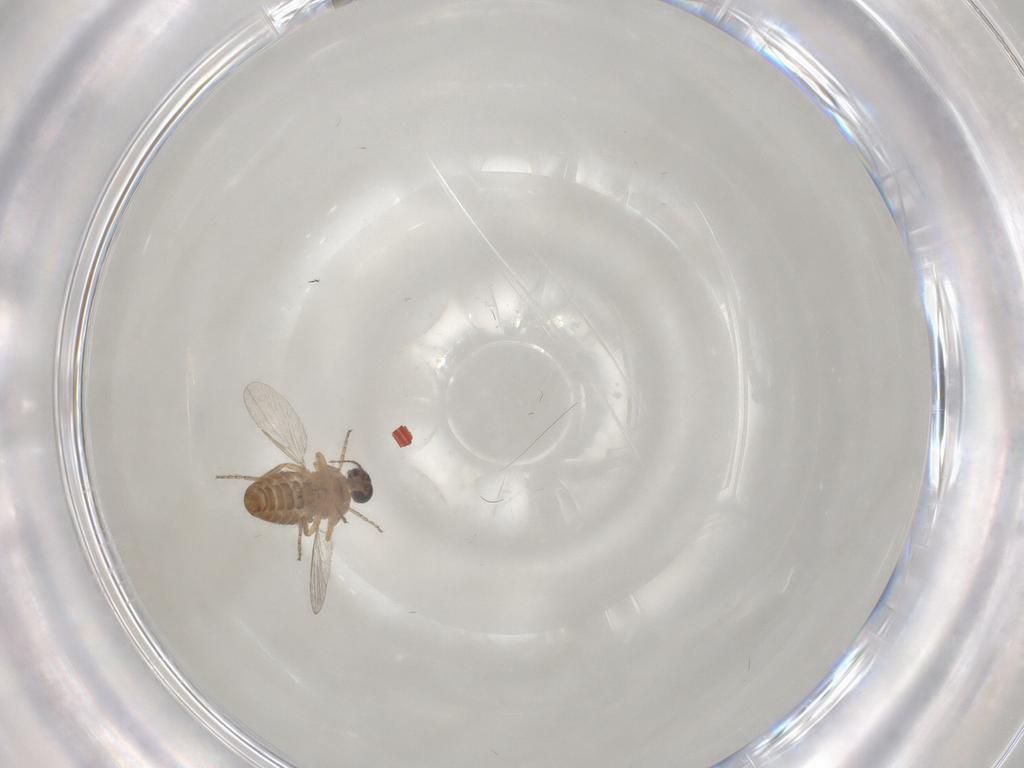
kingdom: Animalia
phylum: Arthropoda
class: Insecta
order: Diptera
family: Ceratopogonidae
